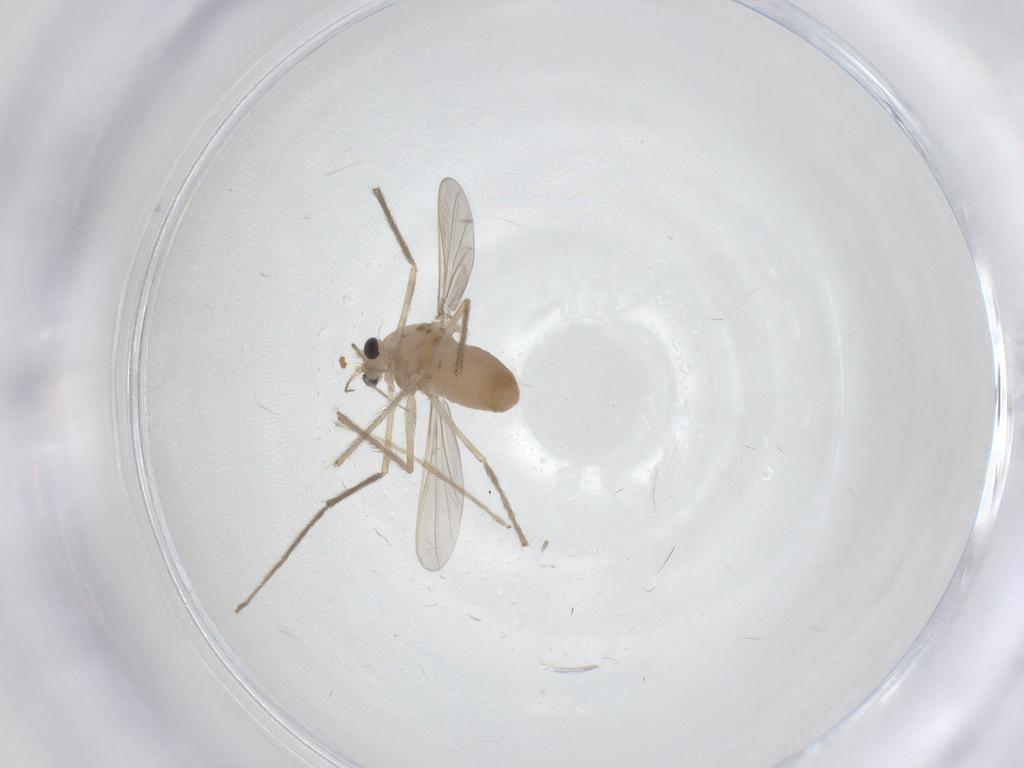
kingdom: Animalia
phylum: Arthropoda
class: Insecta
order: Diptera
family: Chironomidae
